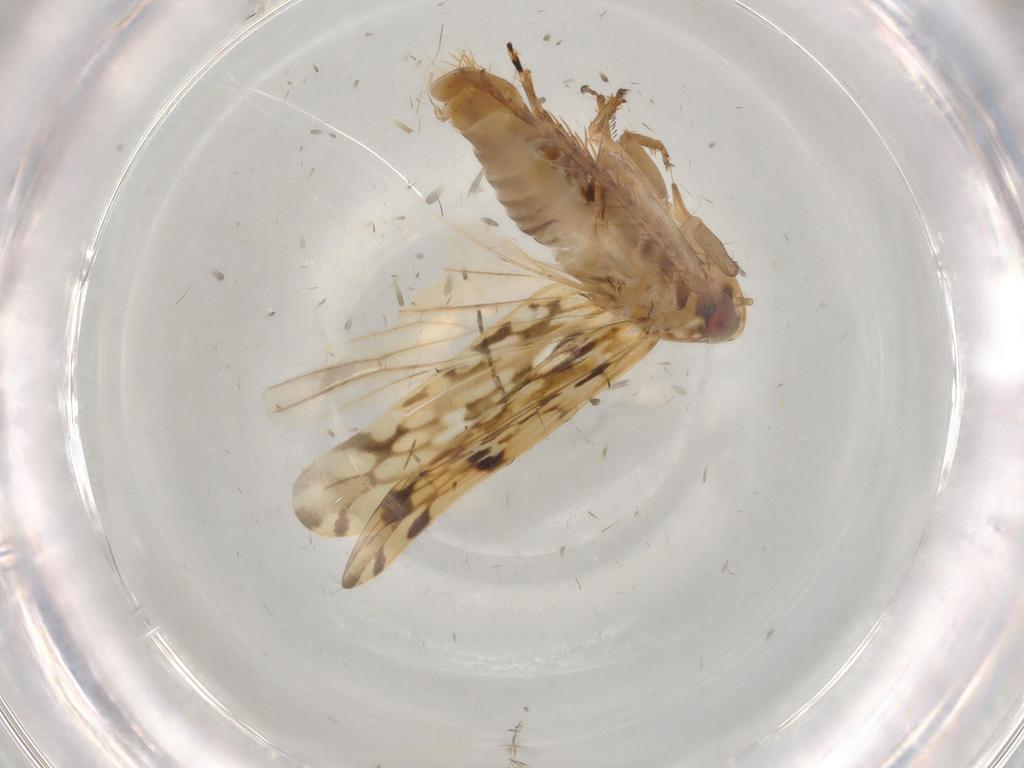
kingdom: Animalia
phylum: Arthropoda
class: Insecta
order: Hemiptera
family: Cicadellidae
